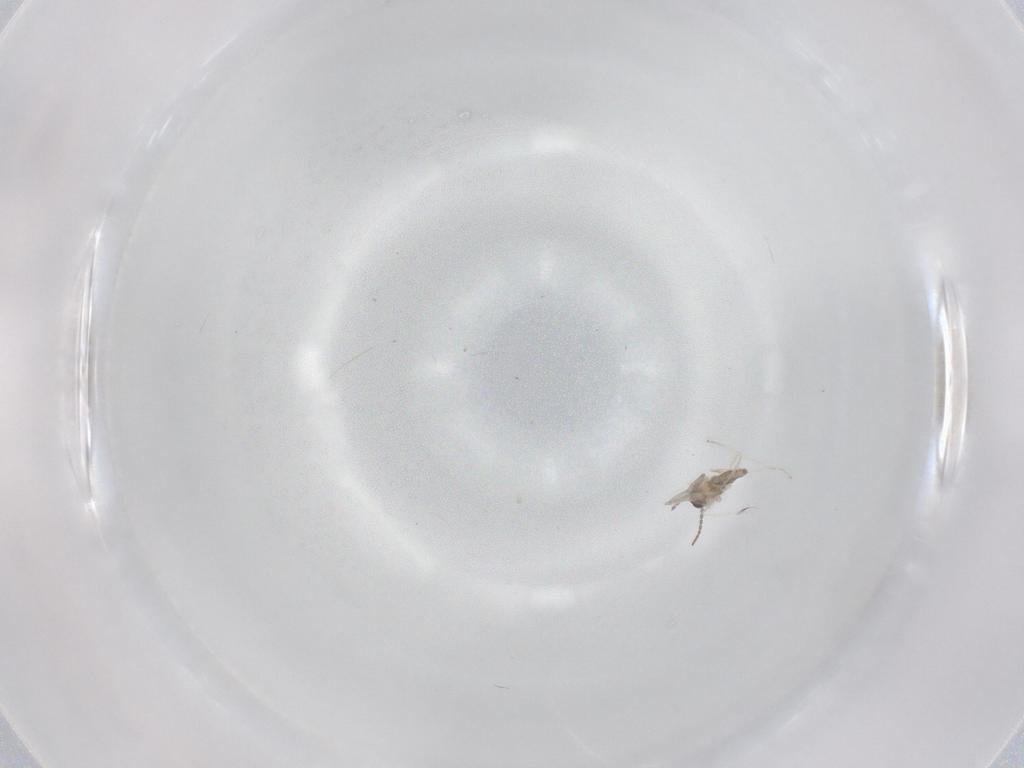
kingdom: Animalia
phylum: Arthropoda
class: Insecta
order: Diptera
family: Cecidomyiidae
